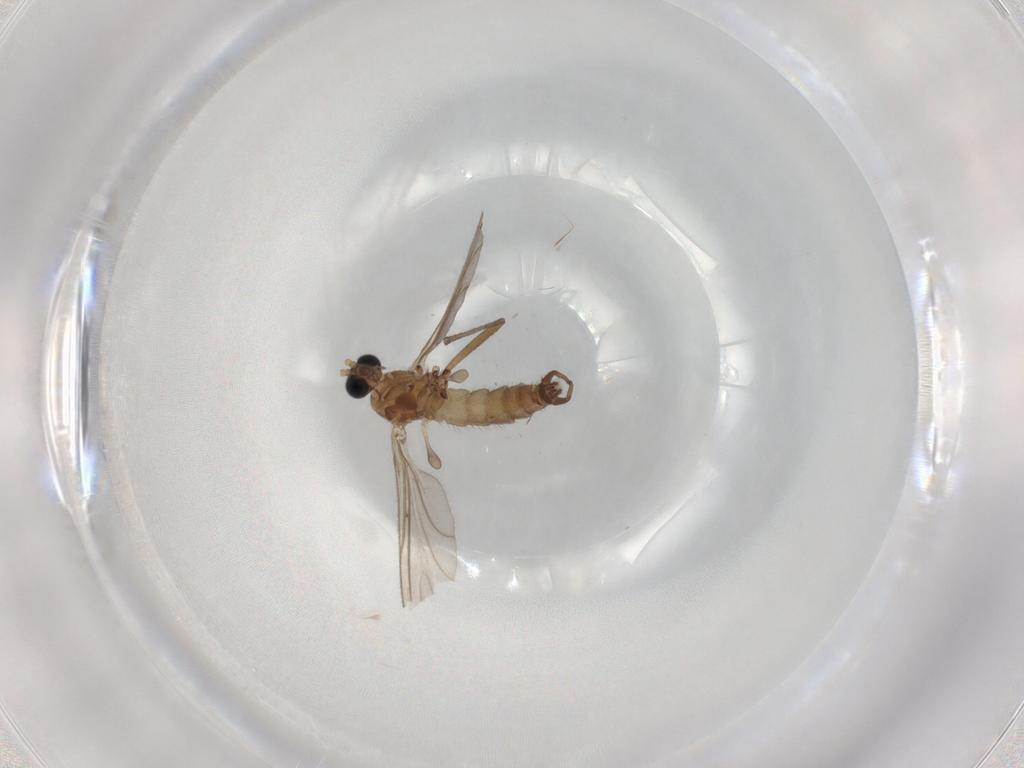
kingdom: Animalia
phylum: Arthropoda
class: Insecta
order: Diptera
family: Sciaridae
